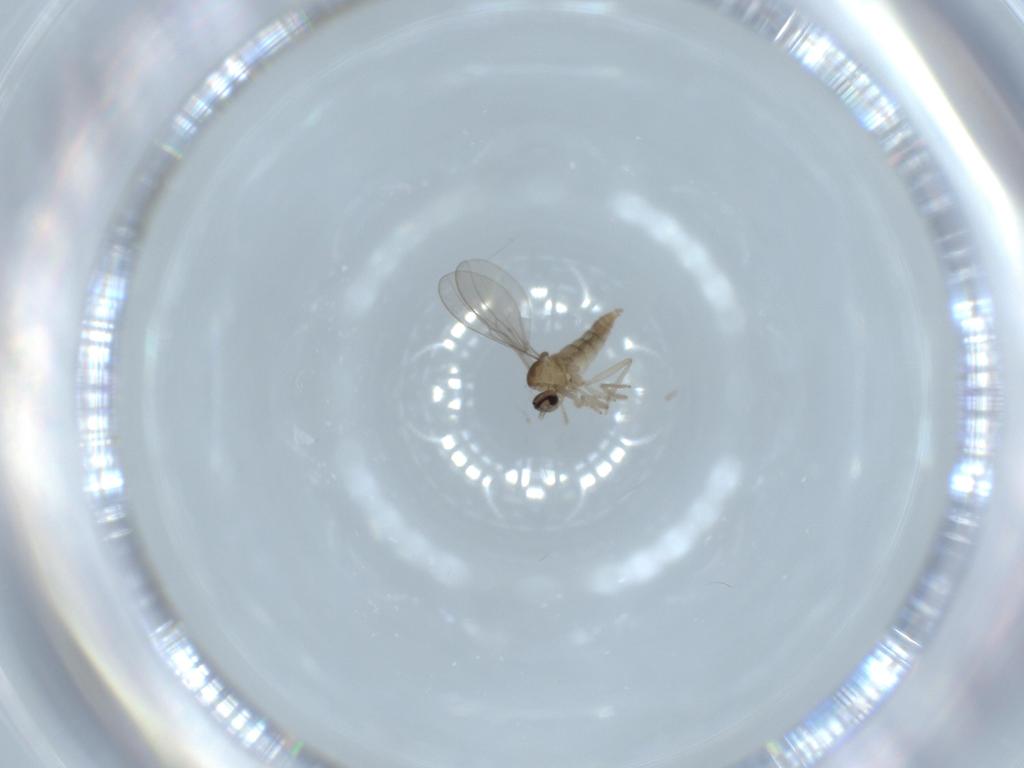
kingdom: Animalia
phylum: Arthropoda
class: Insecta
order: Diptera
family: Cecidomyiidae
